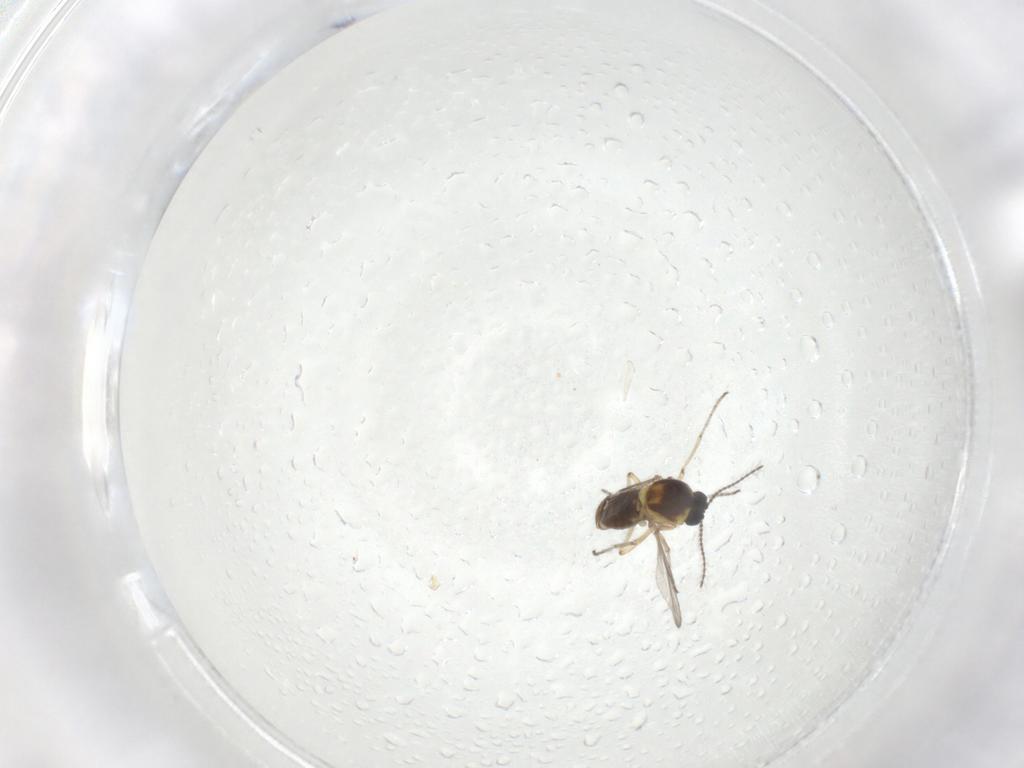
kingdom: Animalia
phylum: Arthropoda
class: Insecta
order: Diptera
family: Ceratopogonidae
